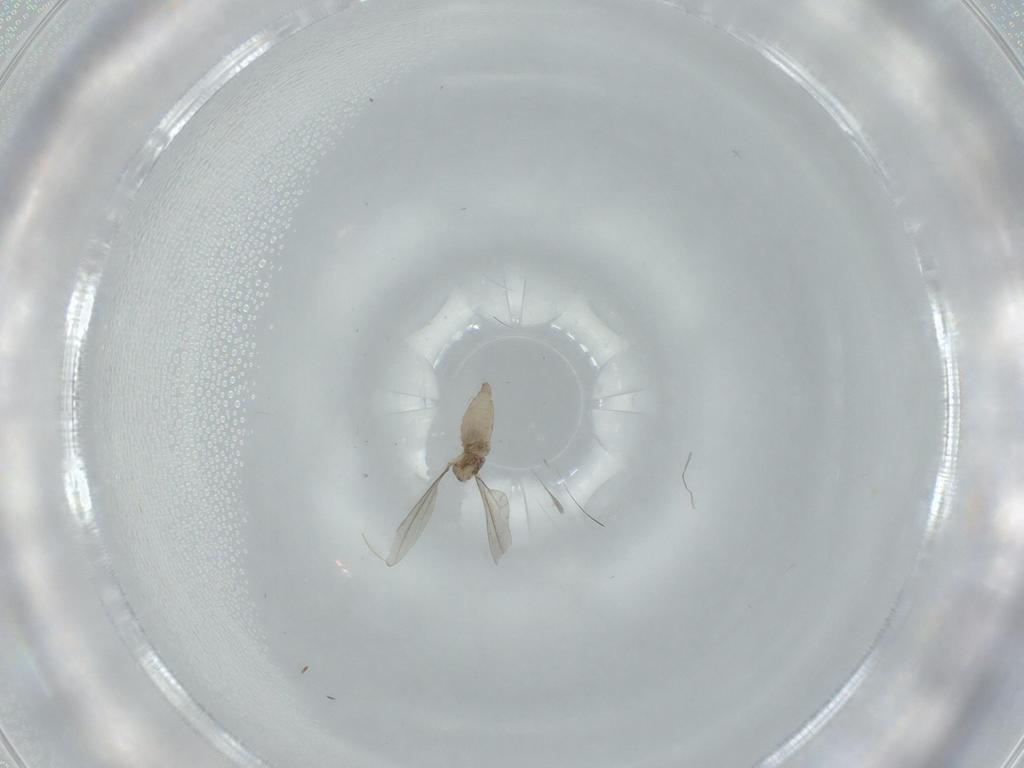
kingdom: Animalia
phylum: Arthropoda
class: Insecta
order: Diptera
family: Cecidomyiidae
